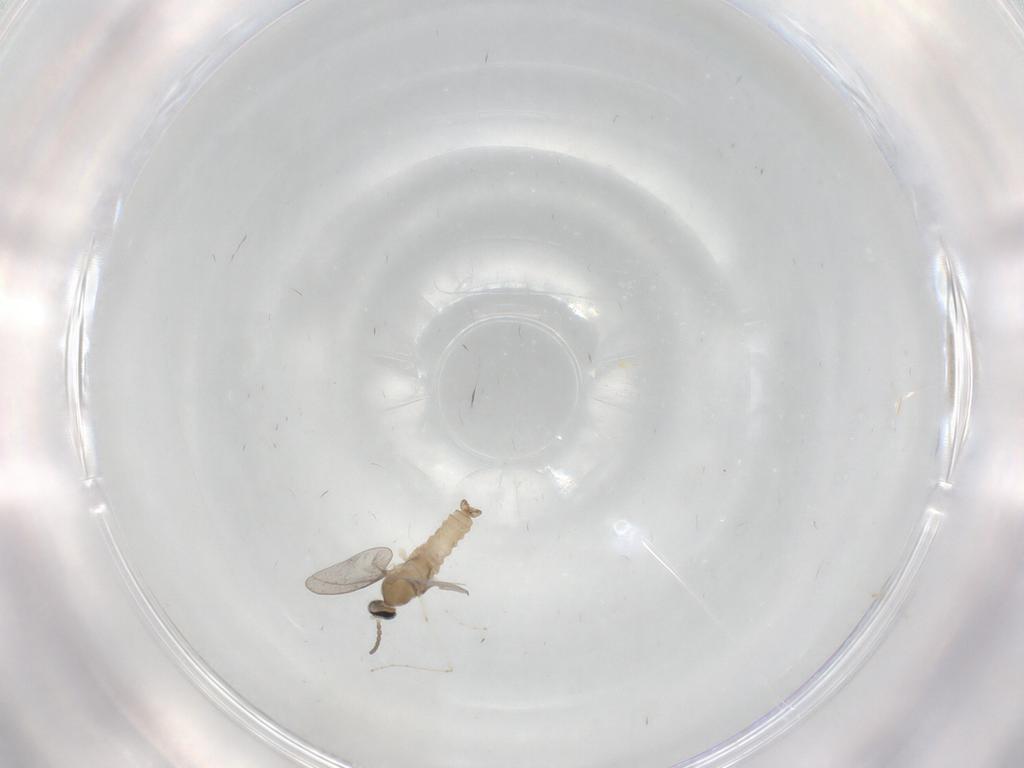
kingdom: Animalia
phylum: Arthropoda
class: Insecta
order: Diptera
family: Cecidomyiidae
